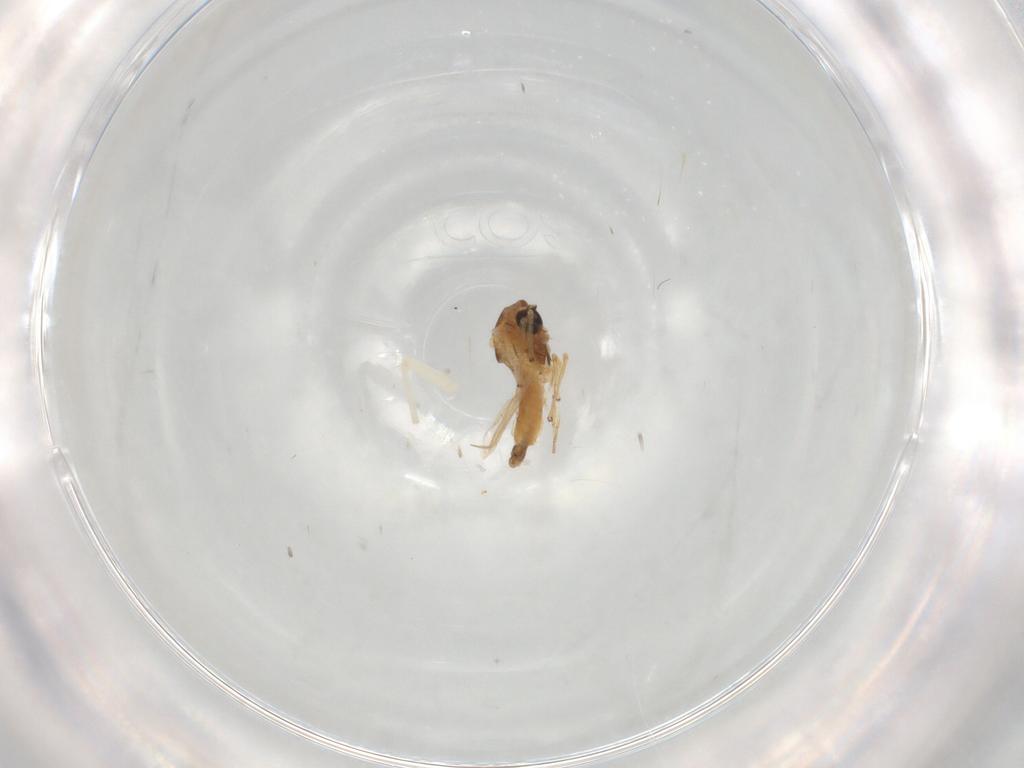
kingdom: Animalia
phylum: Arthropoda
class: Insecta
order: Diptera
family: Chironomidae
